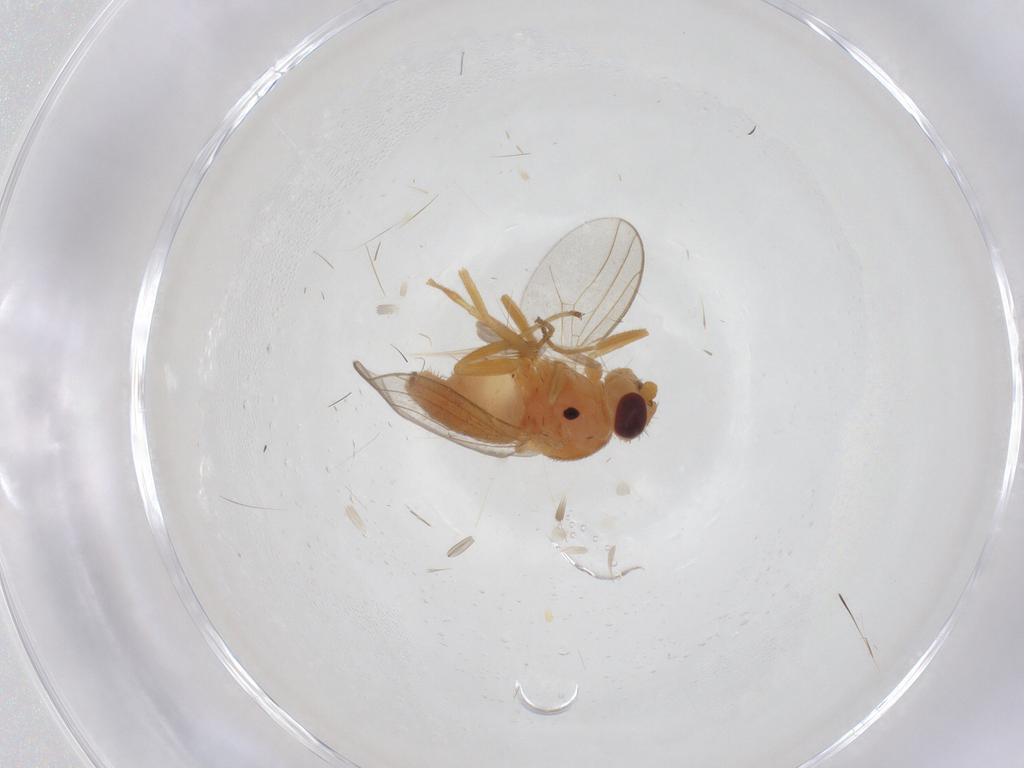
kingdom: Animalia
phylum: Arthropoda
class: Insecta
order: Diptera
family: Chloropidae
